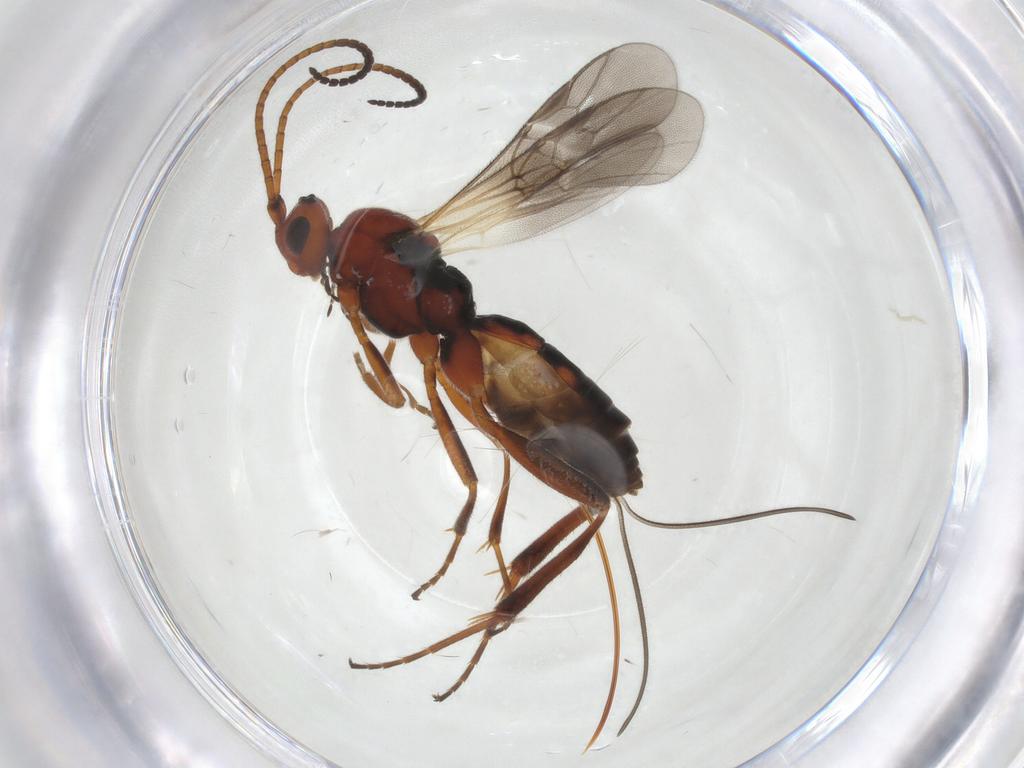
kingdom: Animalia
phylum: Arthropoda
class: Insecta
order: Hymenoptera
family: Braconidae
